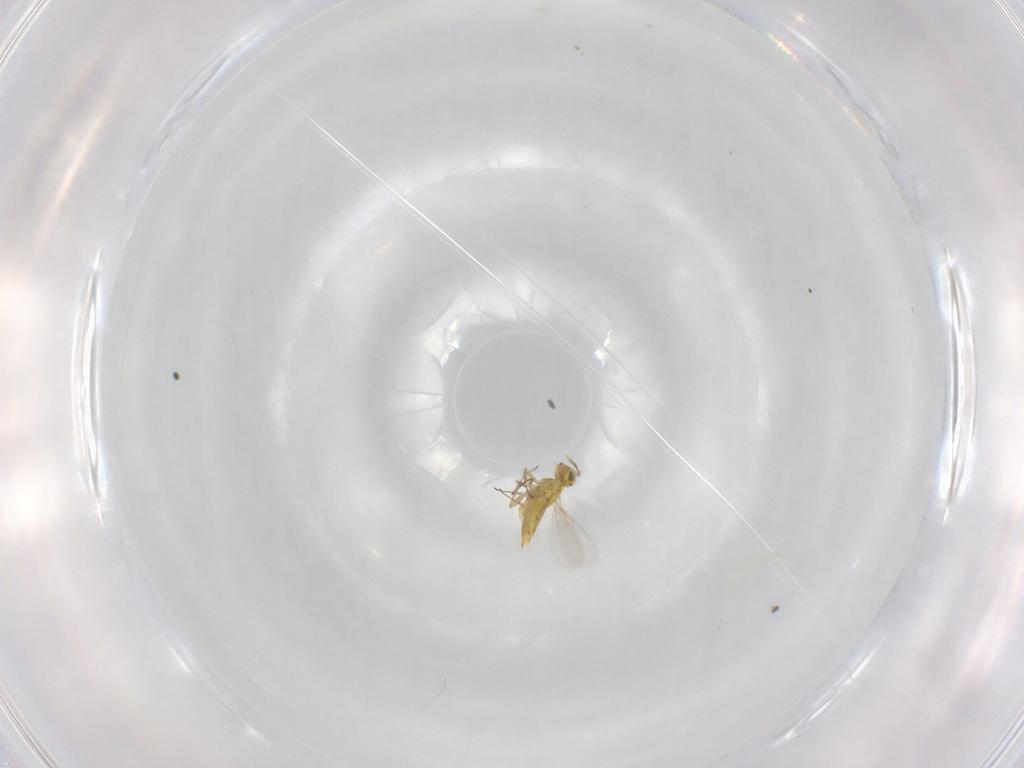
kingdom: Animalia
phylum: Arthropoda
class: Insecta
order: Hymenoptera
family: Aphelinidae
